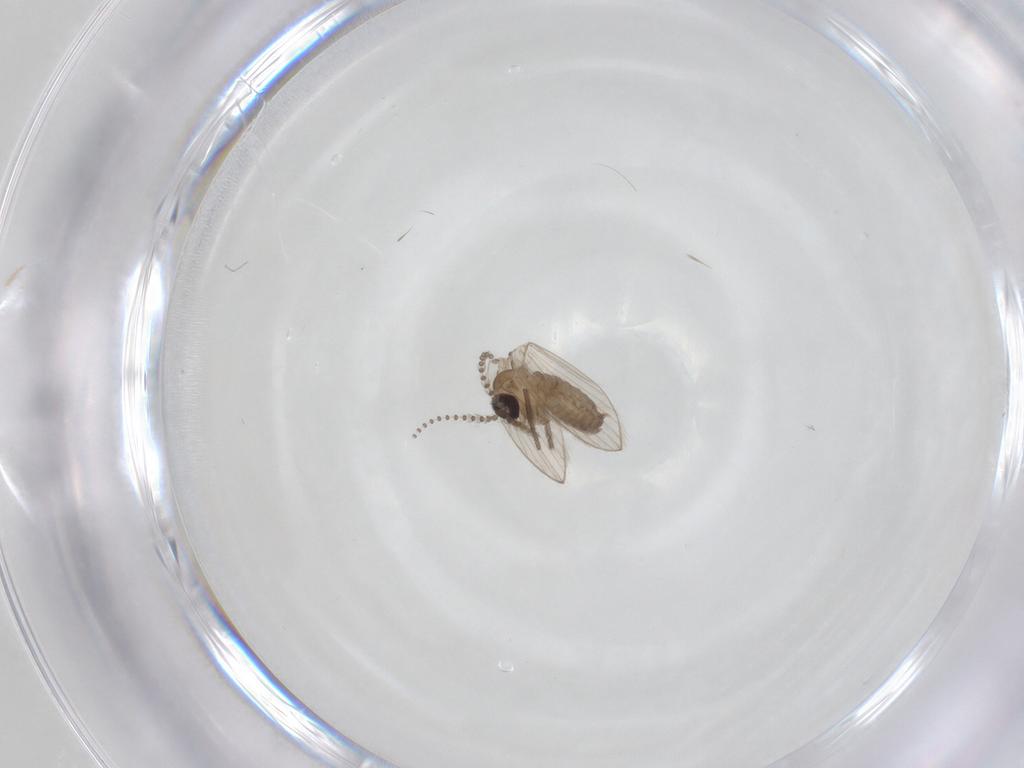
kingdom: Animalia
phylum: Arthropoda
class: Insecta
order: Diptera
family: Psychodidae
